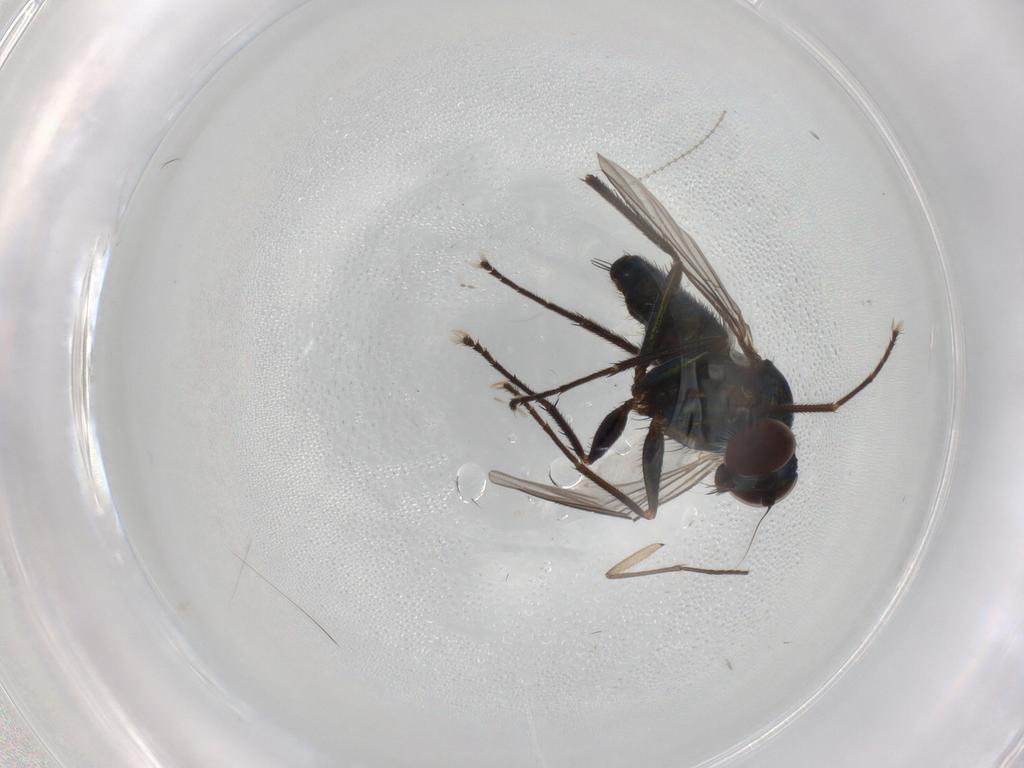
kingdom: Animalia
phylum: Arthropoda
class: Insecta
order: Diptera
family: Dolichopodidae
